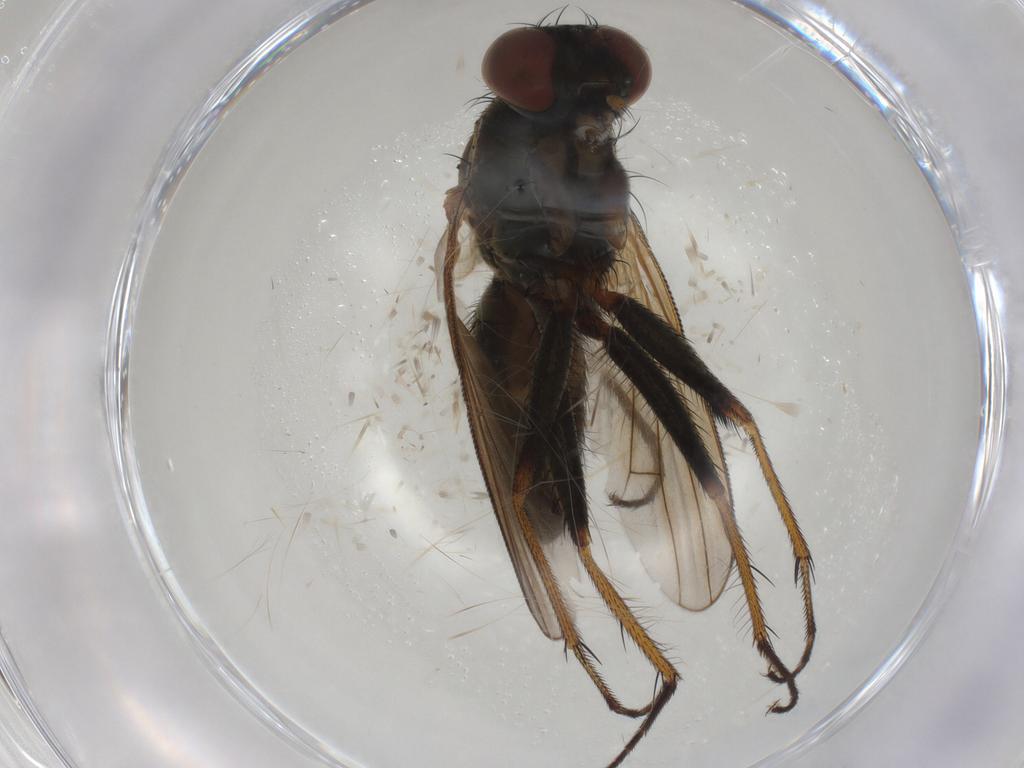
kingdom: Animalia
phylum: Arthropoda
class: Insecta
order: Diptera
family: Muscidae
